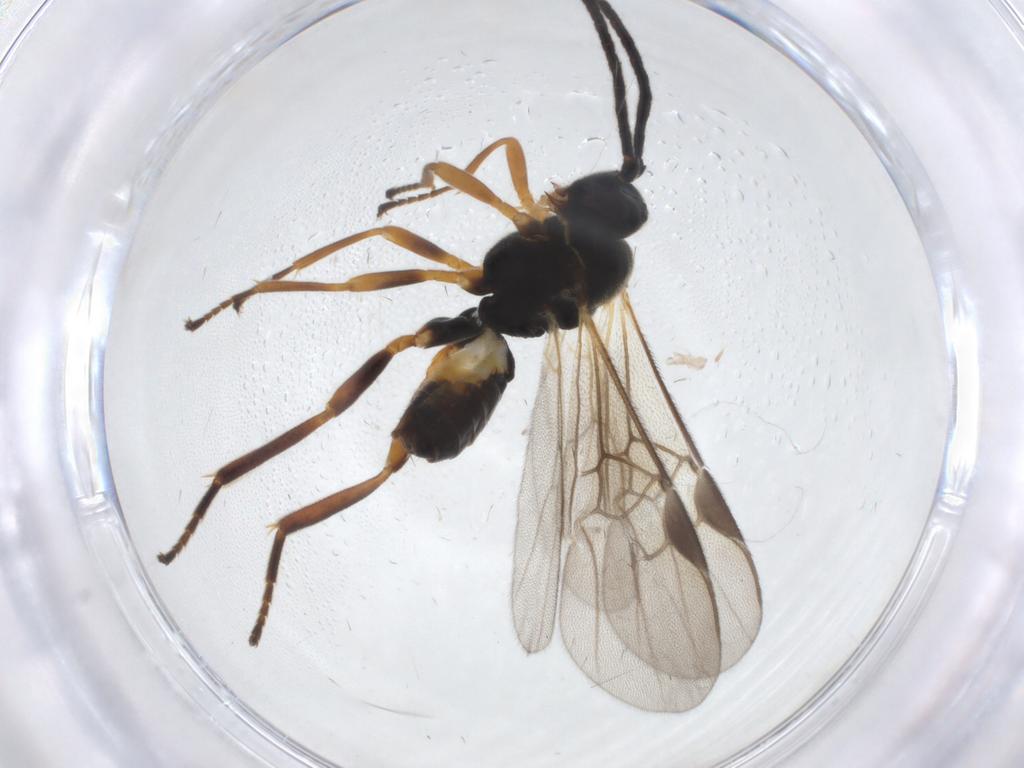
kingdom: Animalia
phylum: Arthropoda
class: Insecta
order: Hymenoptera
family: Braconidae
